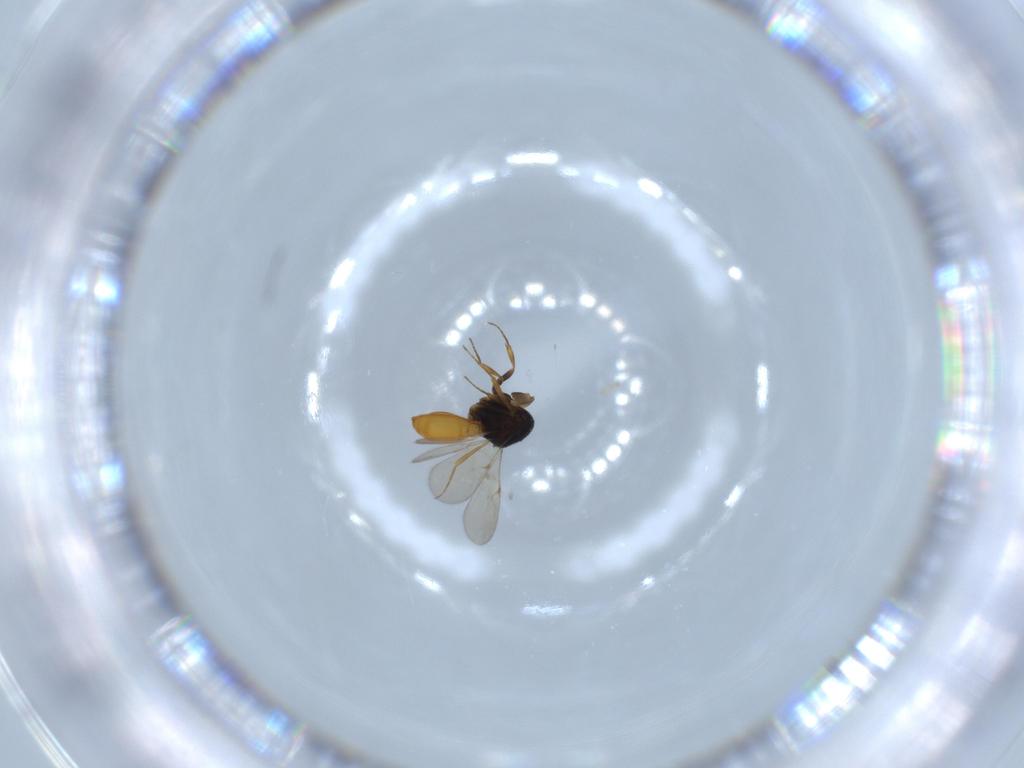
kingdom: Animalia
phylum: Arthropoda
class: Insecta
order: Hymenoptera
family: Scelionidae
